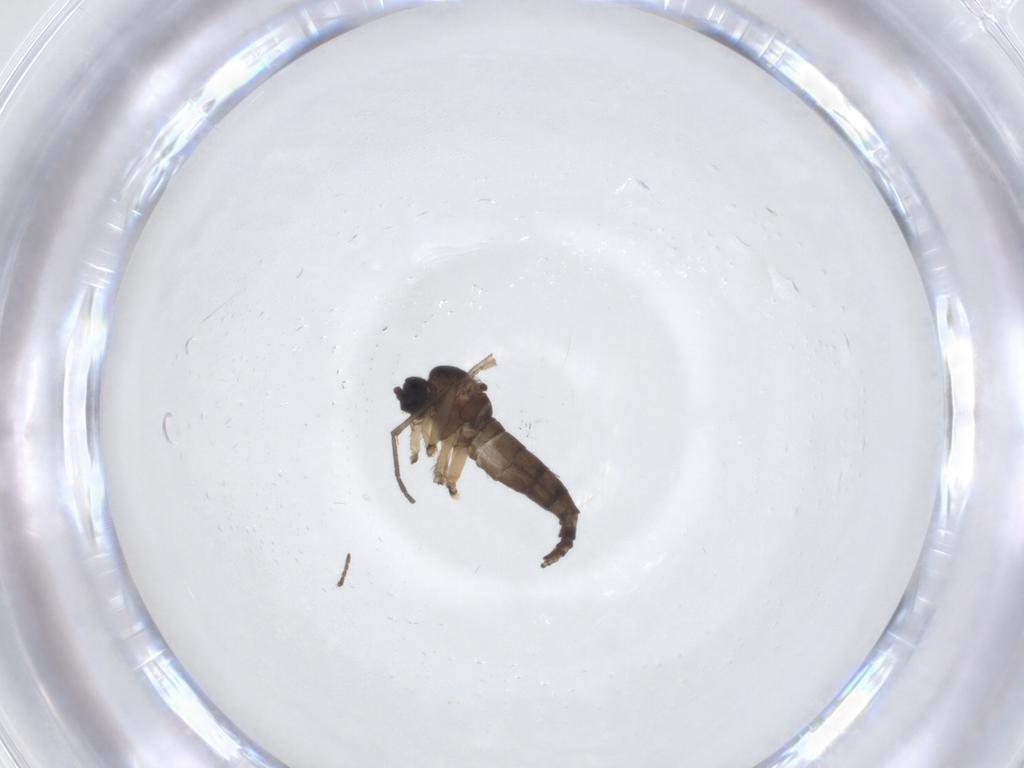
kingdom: Animalia
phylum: Arthropoda
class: Insecta
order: Diptera
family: Sciaridae
